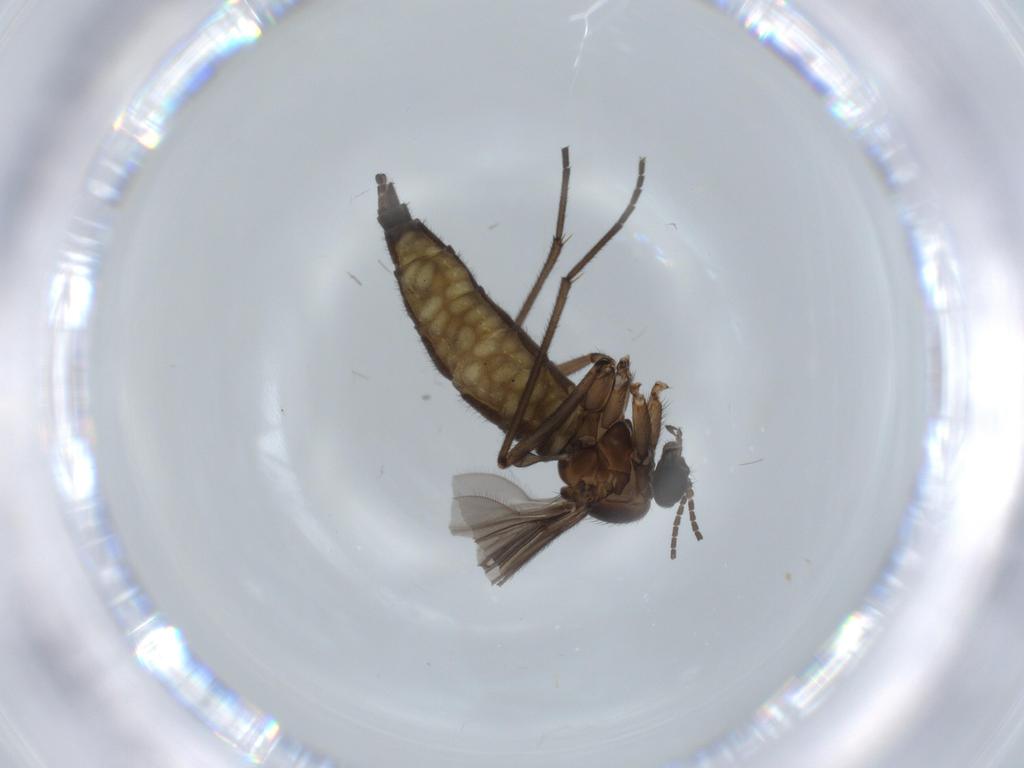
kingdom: Animalia
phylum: Arthropoda
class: Insecta
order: Diptera
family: Sciaridae
